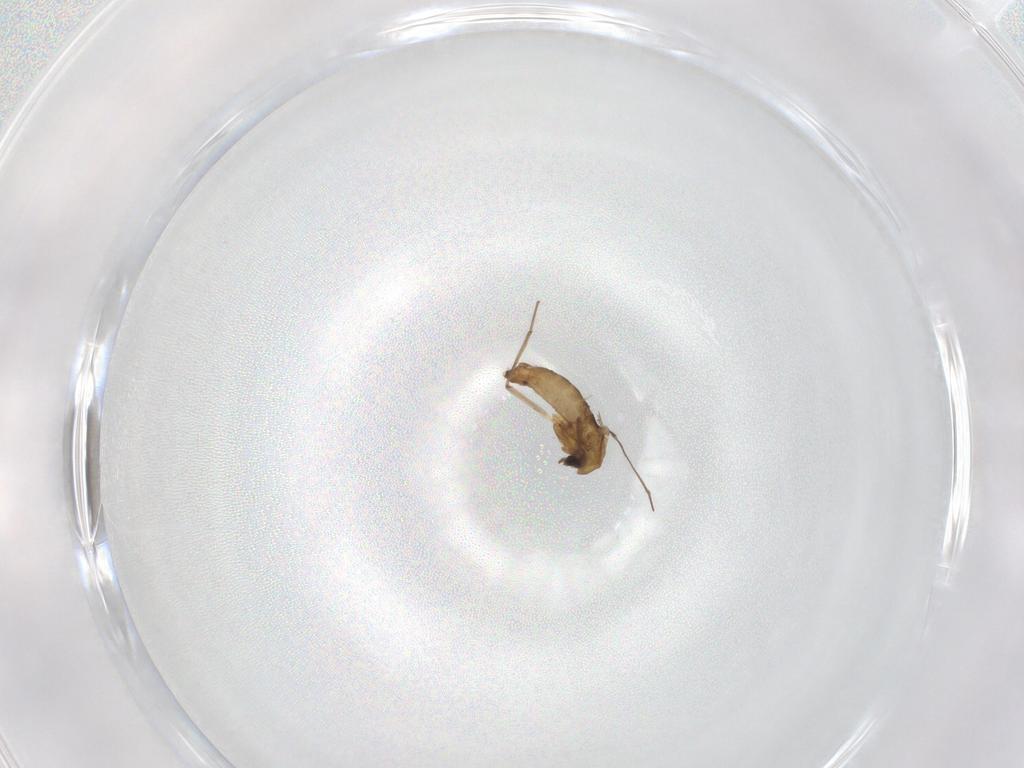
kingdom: Animalia
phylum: Arthropoda
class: Insecta
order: Diptera
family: Chironomidae
